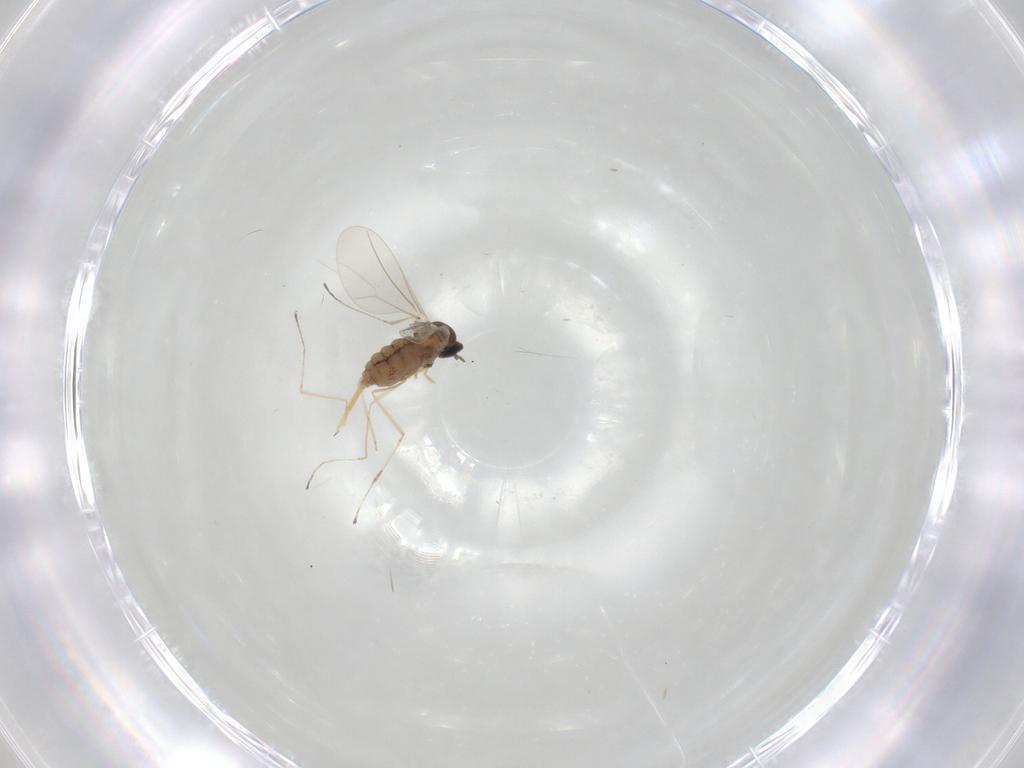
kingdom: Animalia
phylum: Arthropoda
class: Insecta
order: Diptera
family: Cecidomyiidae
